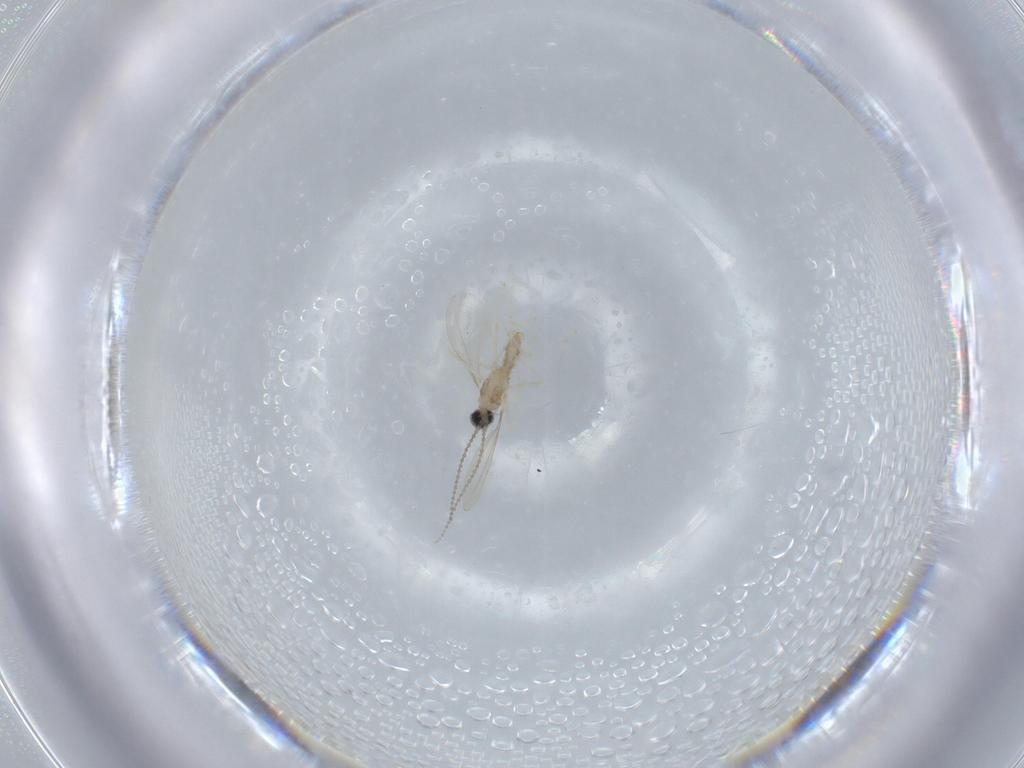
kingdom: Animalia
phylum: Arthropoda
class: Insecta
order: Diptera
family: Cecidomyiidae
